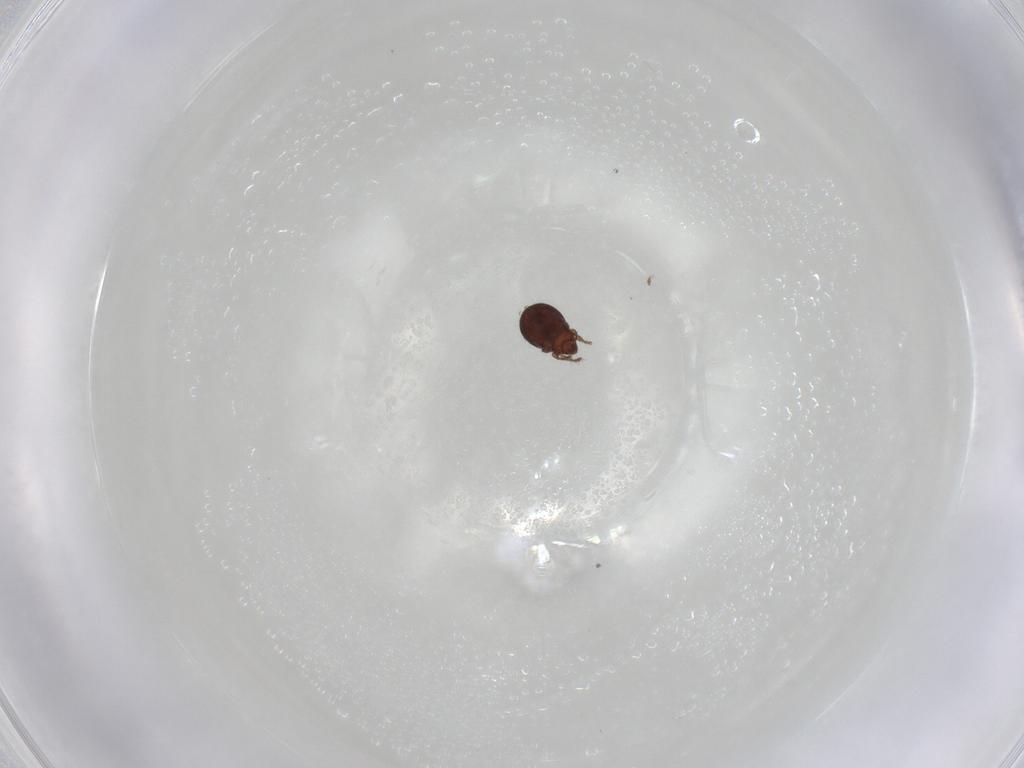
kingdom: Animalia
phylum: Arthropoda
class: Arachnida
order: Sarcoptiformes
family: Oribatulidae
